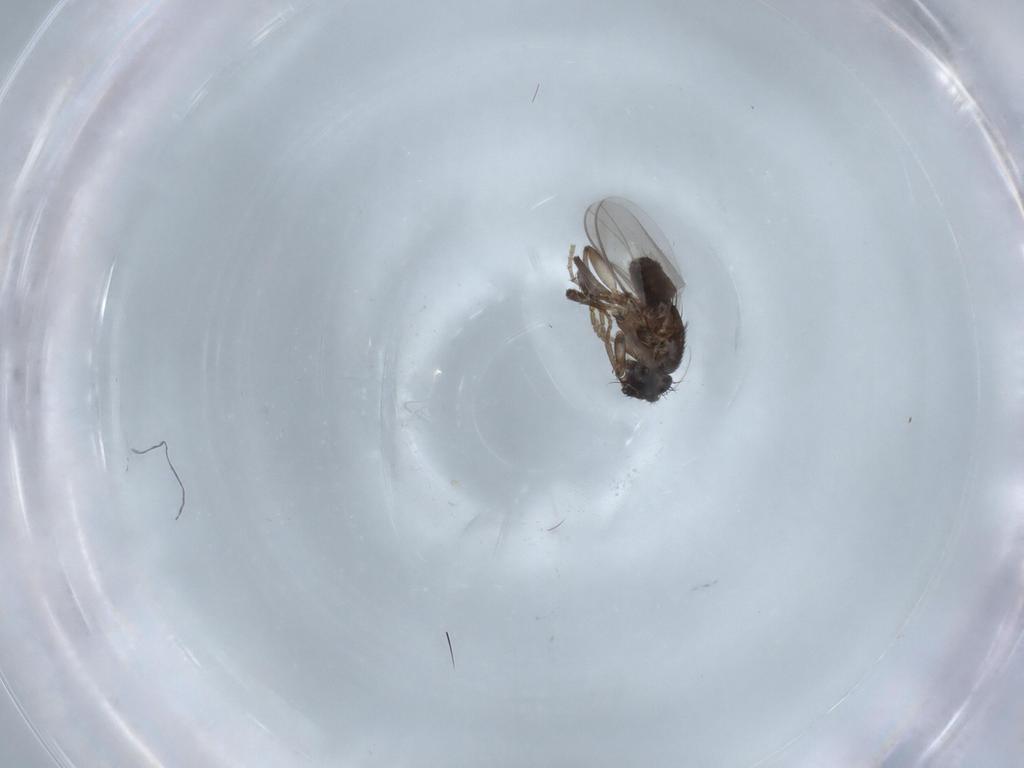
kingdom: Animalia
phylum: Arthropoda
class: Insecta
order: Diptera
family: Sphaeroceridae
